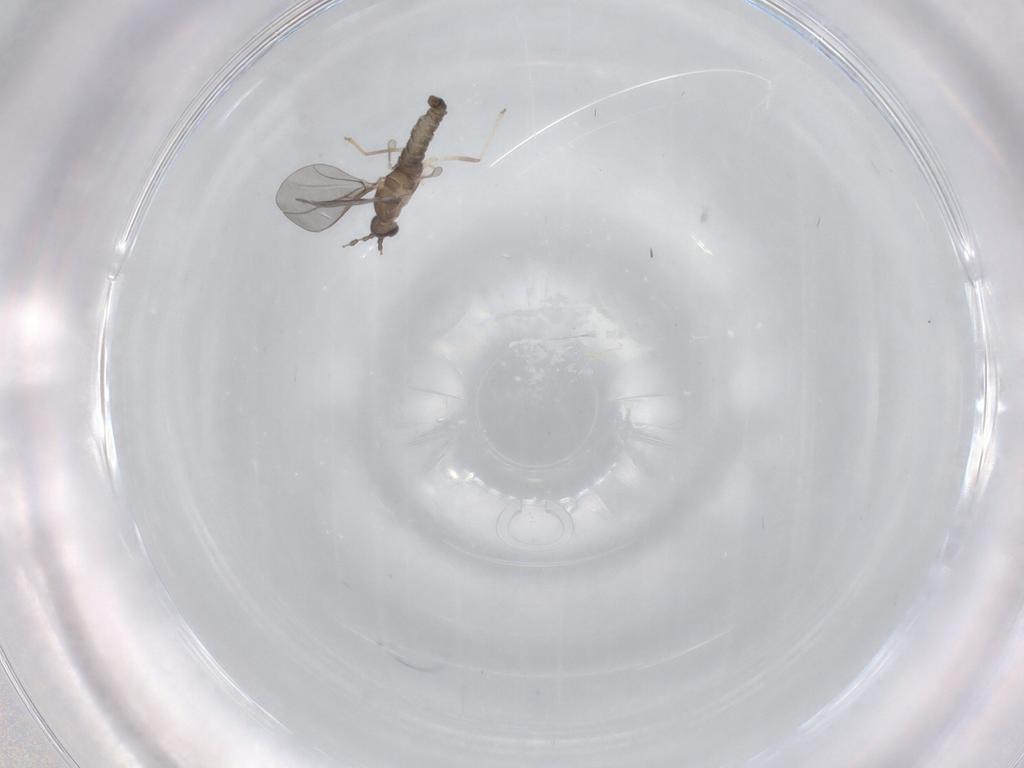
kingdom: Animalia
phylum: Arthropoda
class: Insecta
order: Diptera
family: Cecidomyiidae
